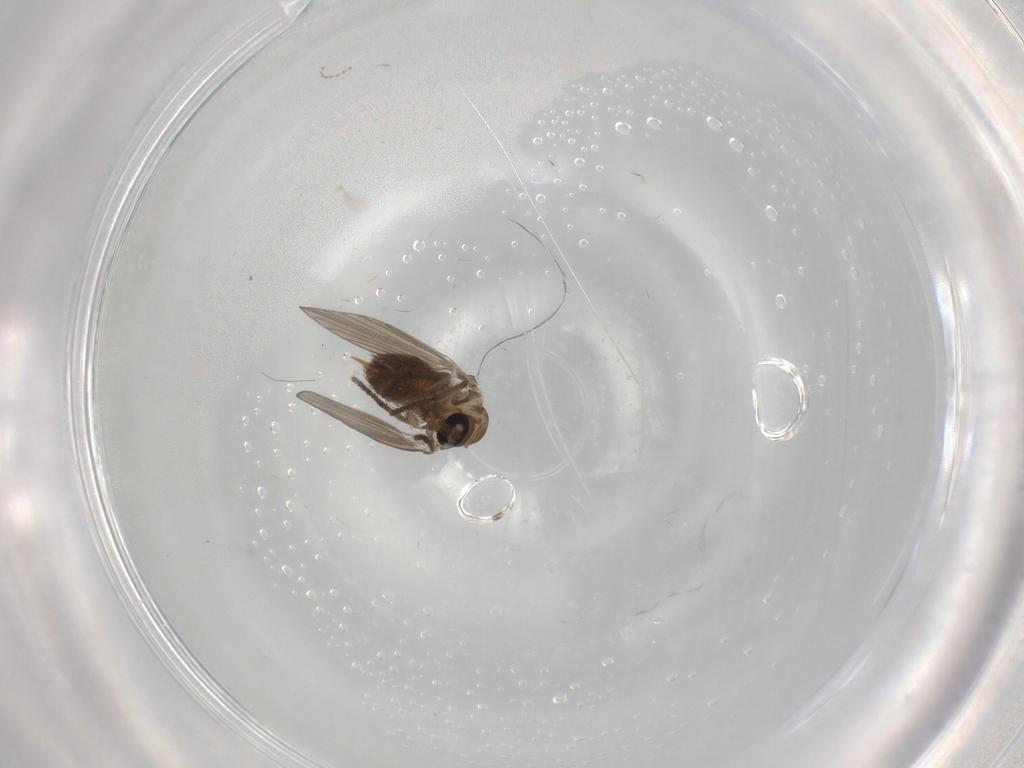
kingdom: Animalia
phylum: Arthropoda
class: Insecta
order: Diptera
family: Psychodidae
